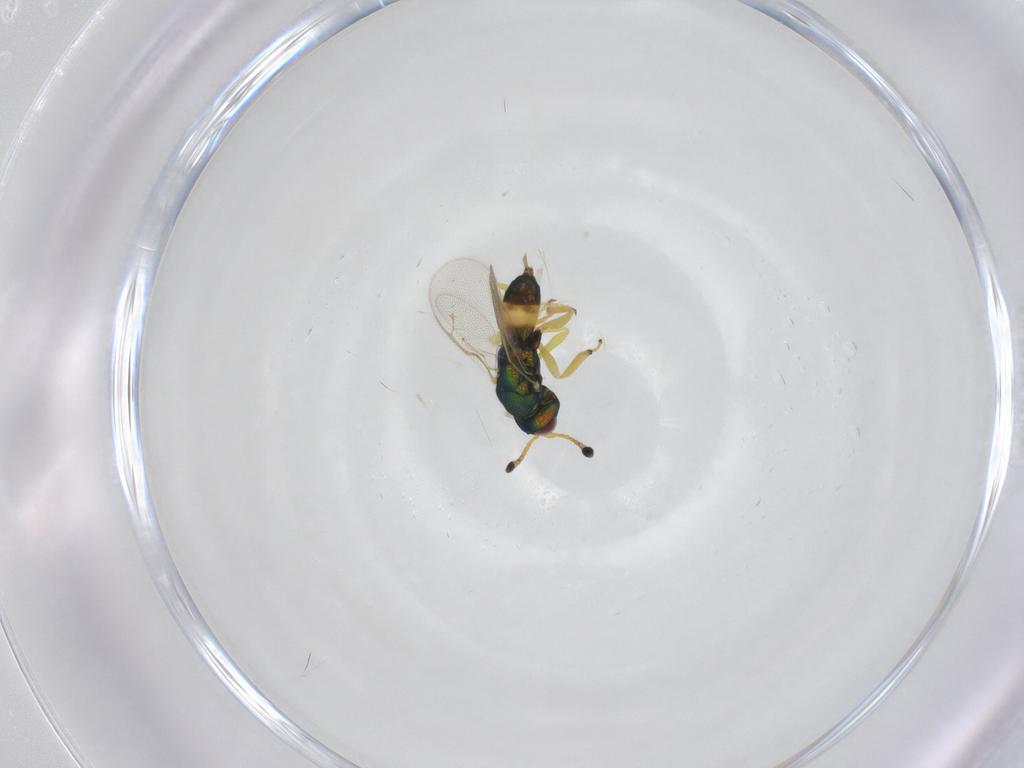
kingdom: Animalia
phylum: Arthropoda
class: Insecta
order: Hymenoptera
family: Pteromalidae
